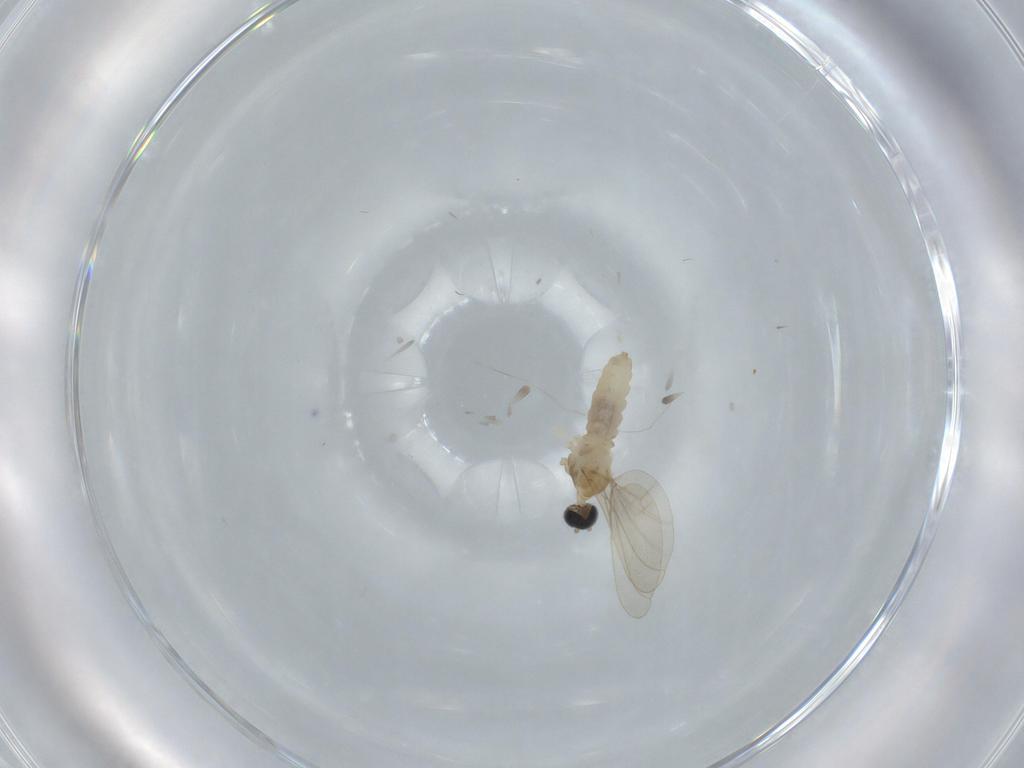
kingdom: Animalia
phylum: Arthropoda
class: Insecta
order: Diptera
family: Cecidomyiidae
